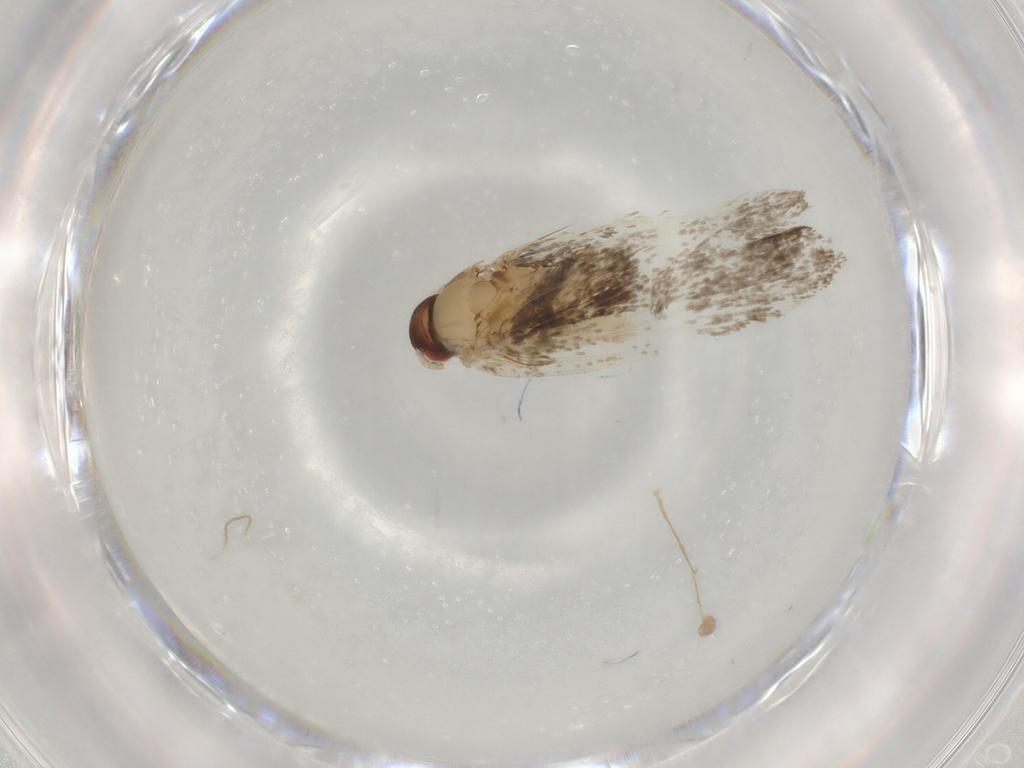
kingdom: Animalia
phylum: Arthropoda
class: Insecta
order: Lepidoptera
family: Gelechiidae
